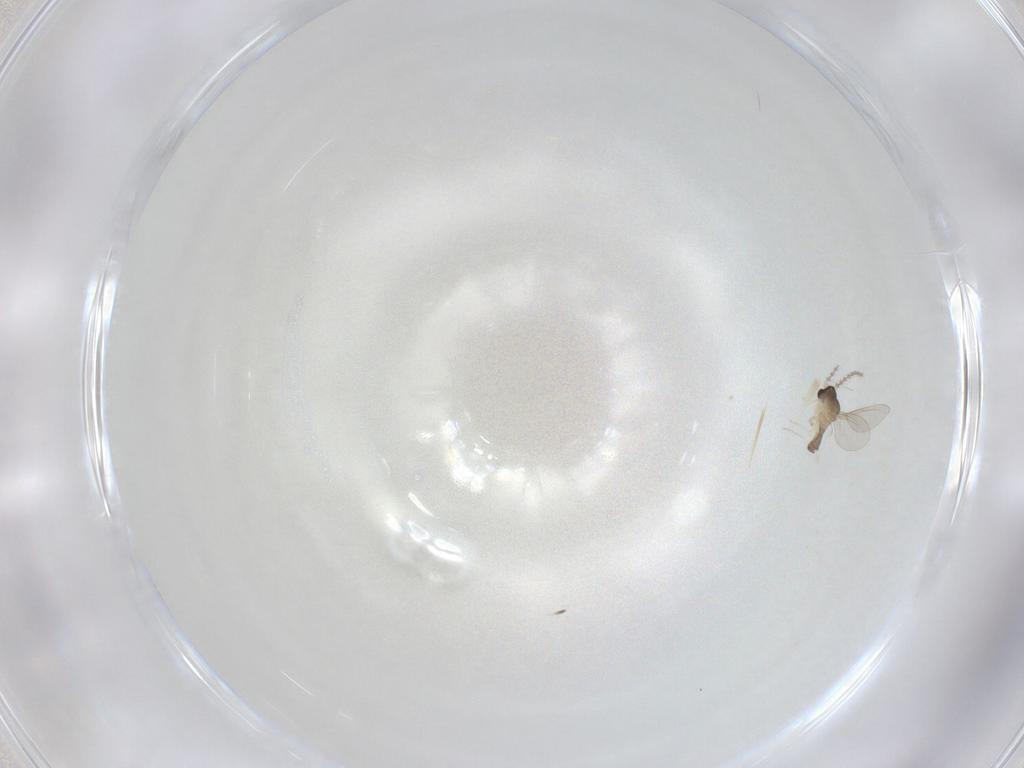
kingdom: Animalia
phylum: Arthropoda
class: Insecta
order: Diptera
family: Cecidomyiidae
